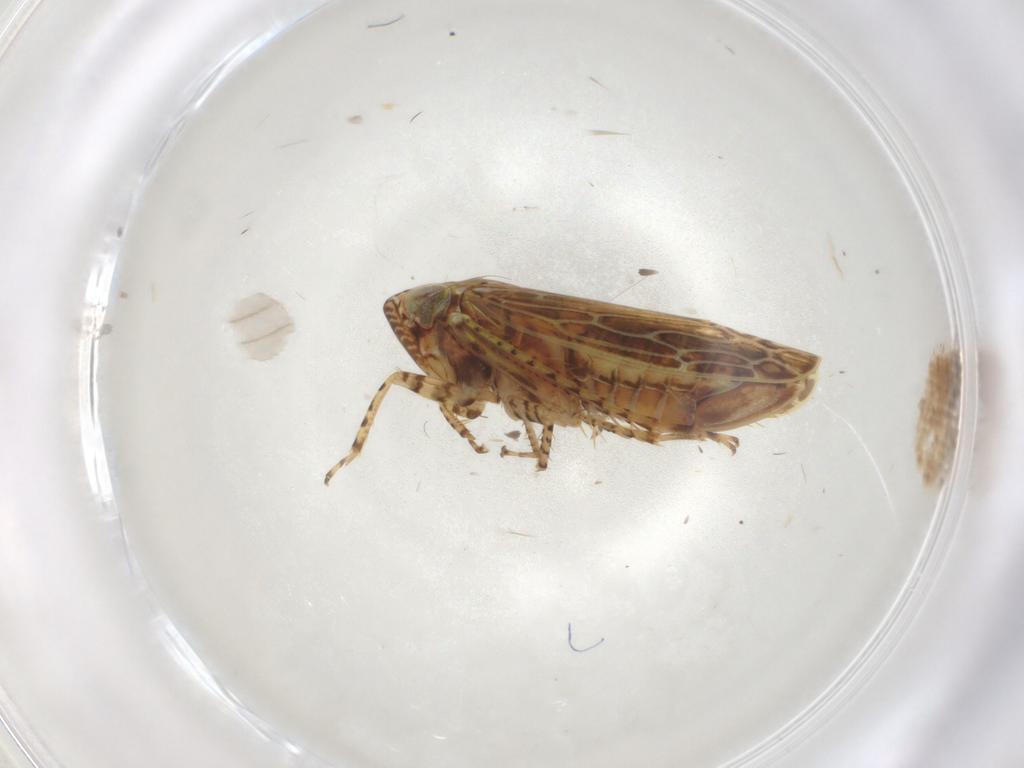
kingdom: Animalia
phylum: Arthropoda
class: Insecta
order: Hemiptera
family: Cicadellidae
